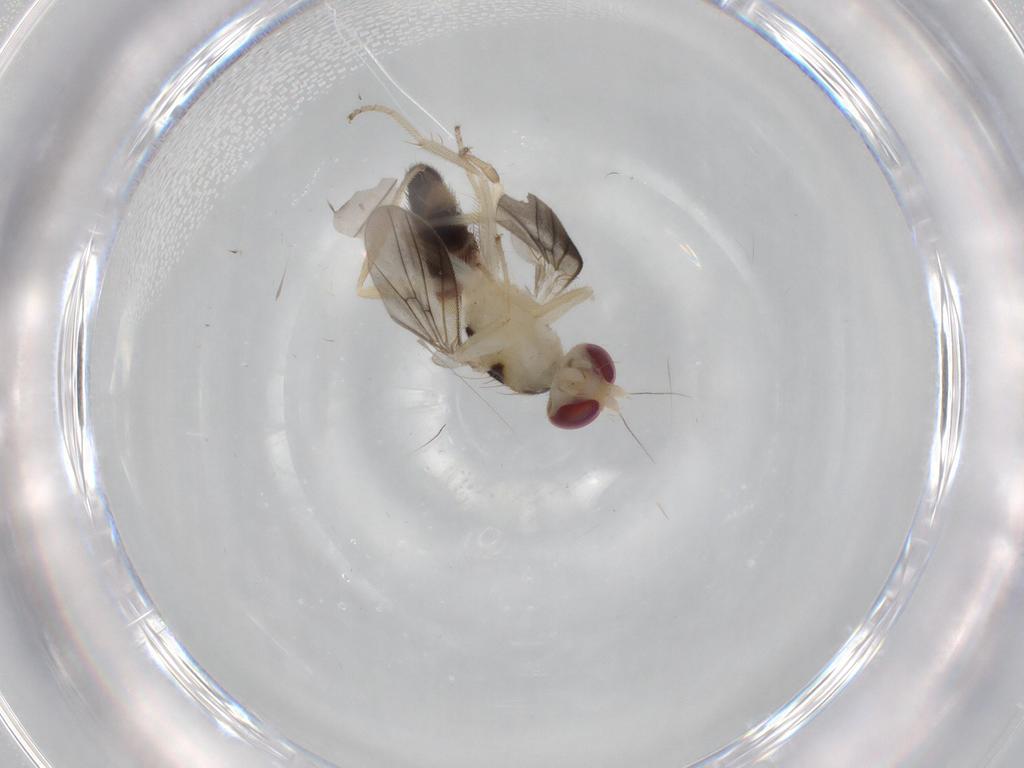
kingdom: Animalia
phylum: Arthropoda
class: Insecta
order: Diptera
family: Clusiidae
